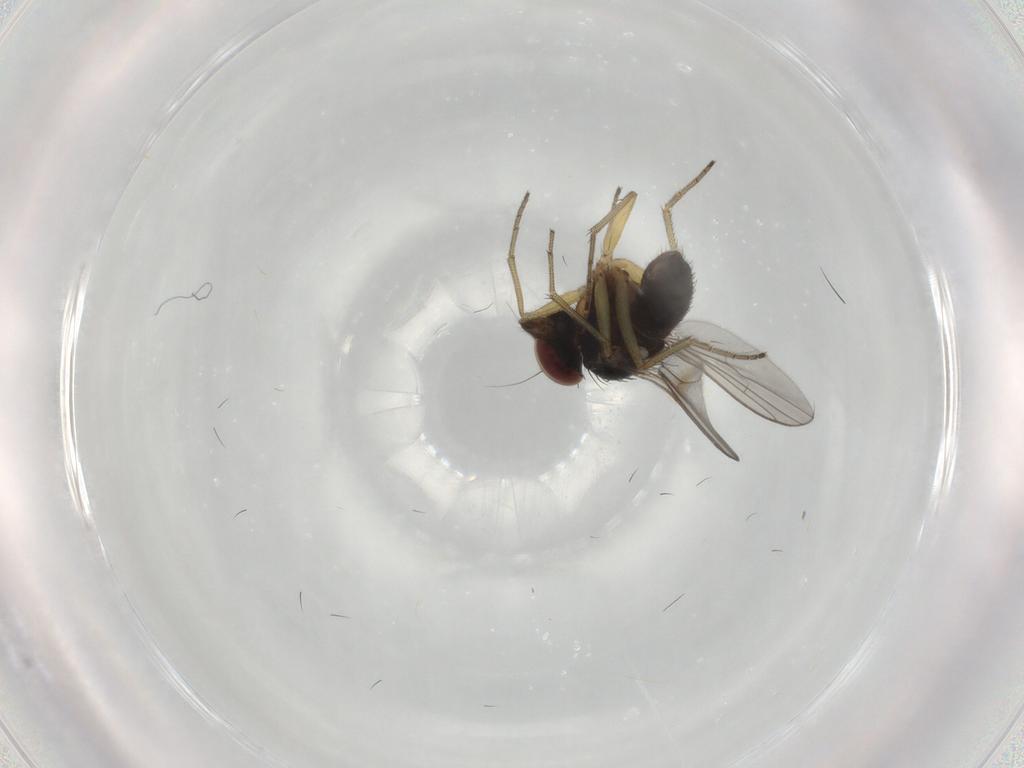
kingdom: Animalia
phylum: Arthropoda
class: Insecta
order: Diptera
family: Dolichopodidae
